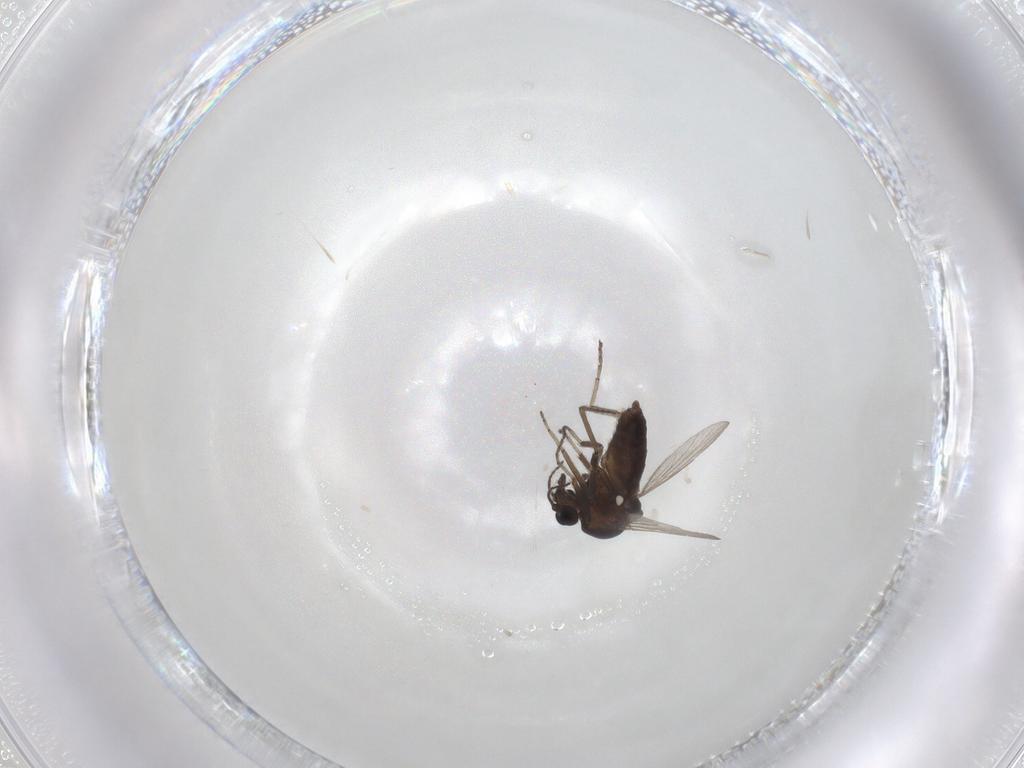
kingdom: Animalia
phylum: Arthropoda
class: Insecta
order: Diptera
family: Ceratopogonidae
